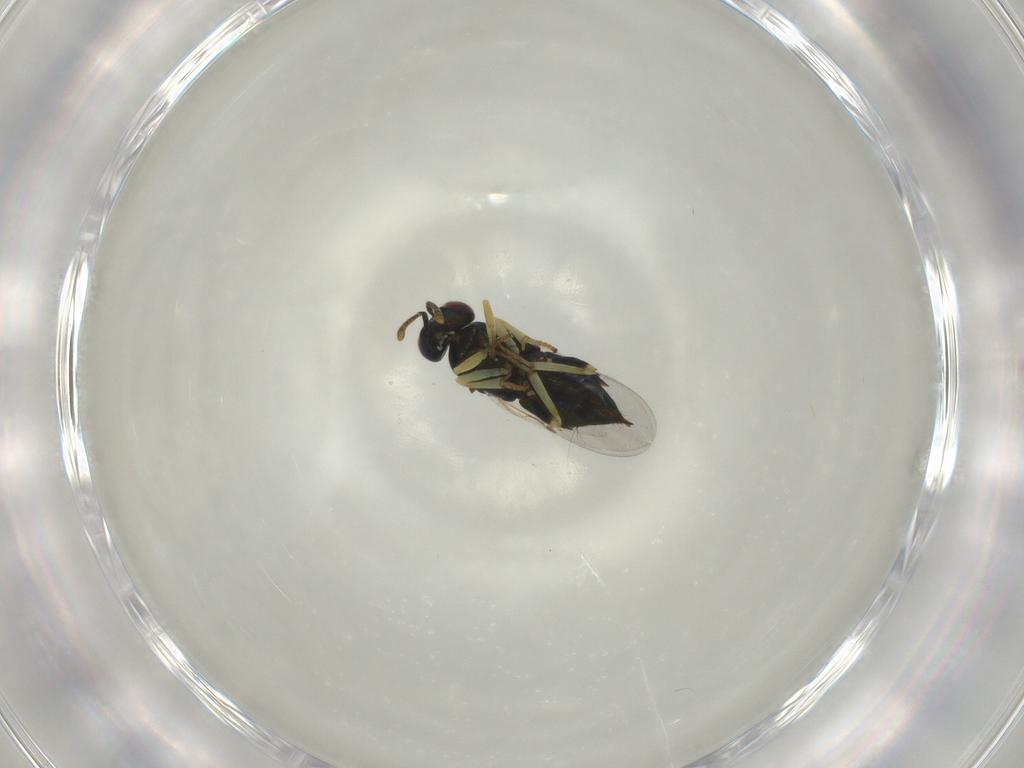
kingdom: Animalia
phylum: Arthropoda
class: Insecta
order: Hymenoptera
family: Encyrtidae
